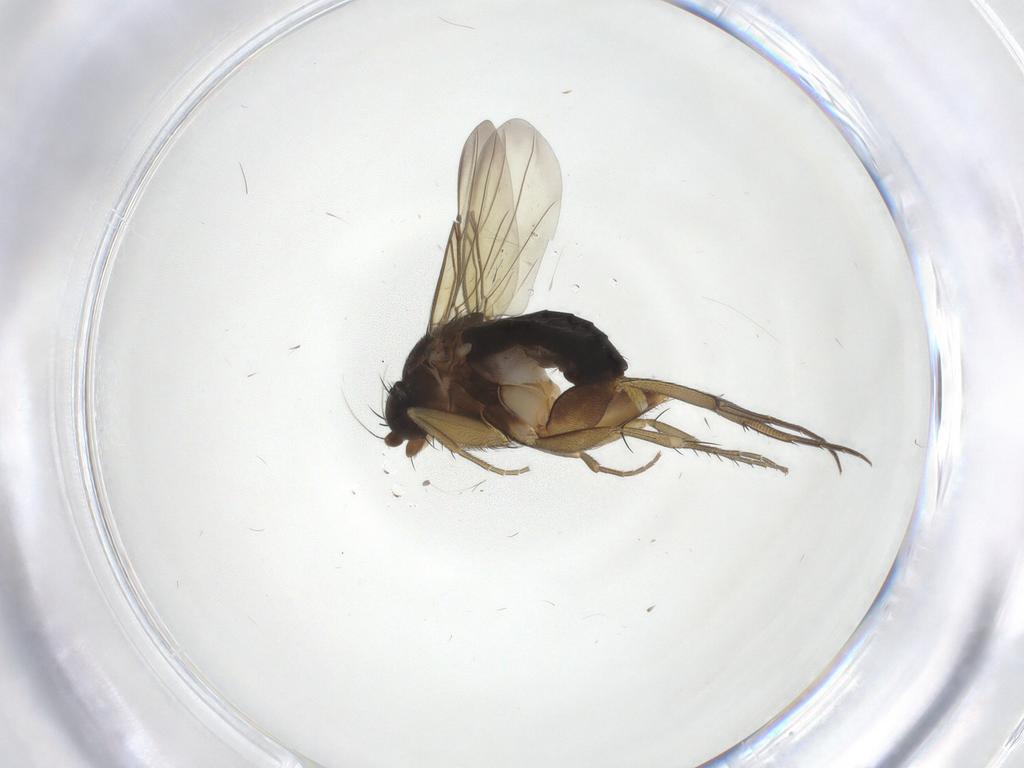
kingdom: Animalia
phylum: Arthropoda
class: Insecta
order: Diptera
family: Phoridae
